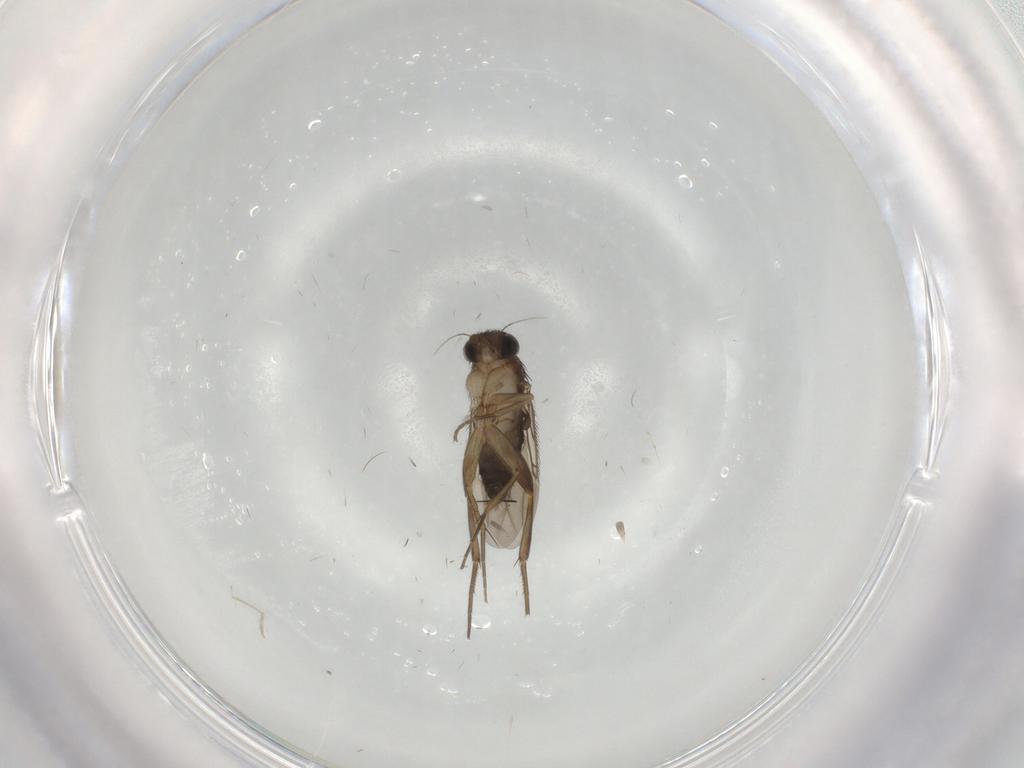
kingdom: Animalia
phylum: Arthropoda
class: Insecta
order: Diptera
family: Phoridae
